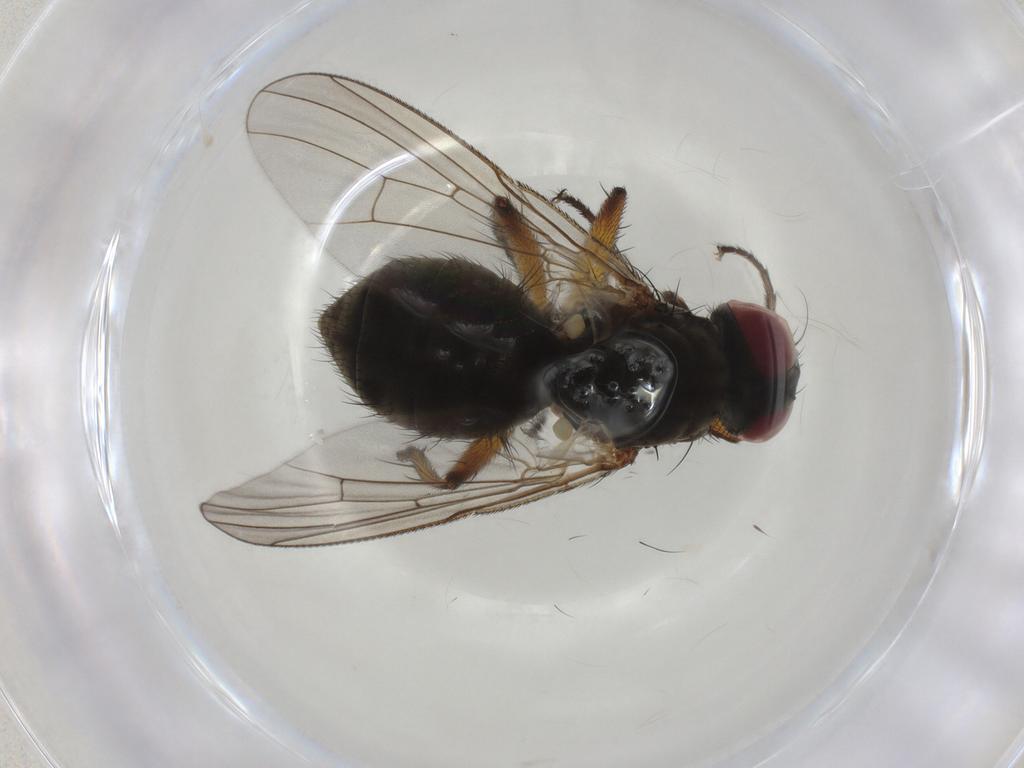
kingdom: Animalia
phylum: Arthropoda
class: Insecta
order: Diptera
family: Muscidae
